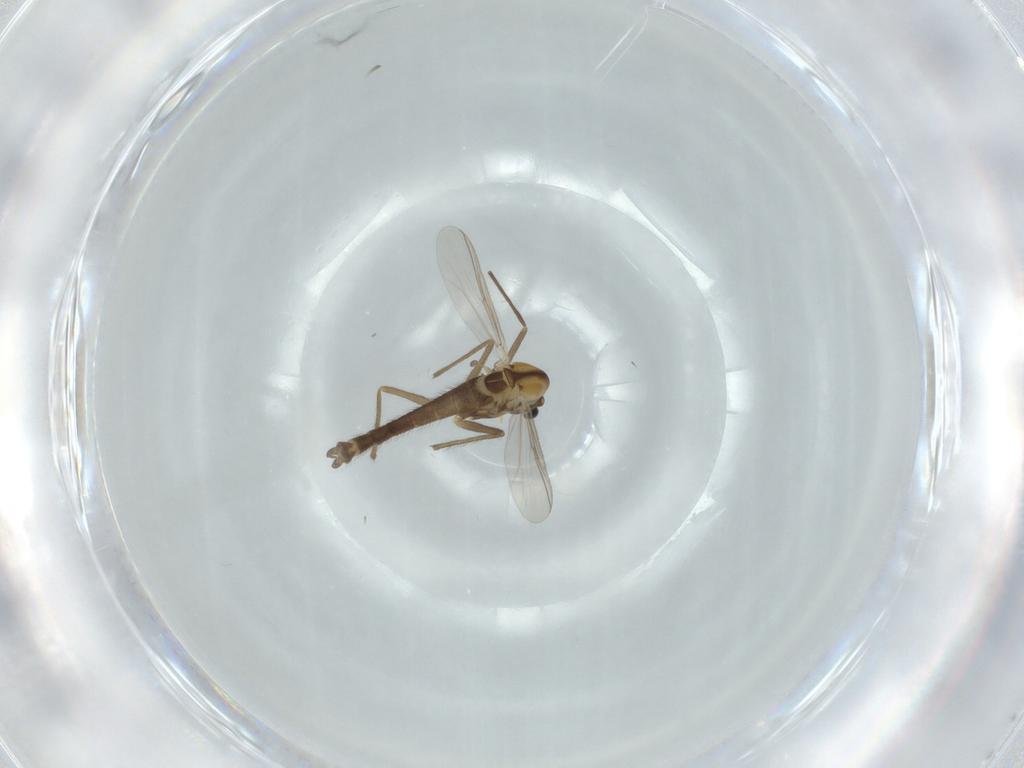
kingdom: Animalia
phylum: Arthropoda
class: Insecta
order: Diptera
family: Chironomidae
